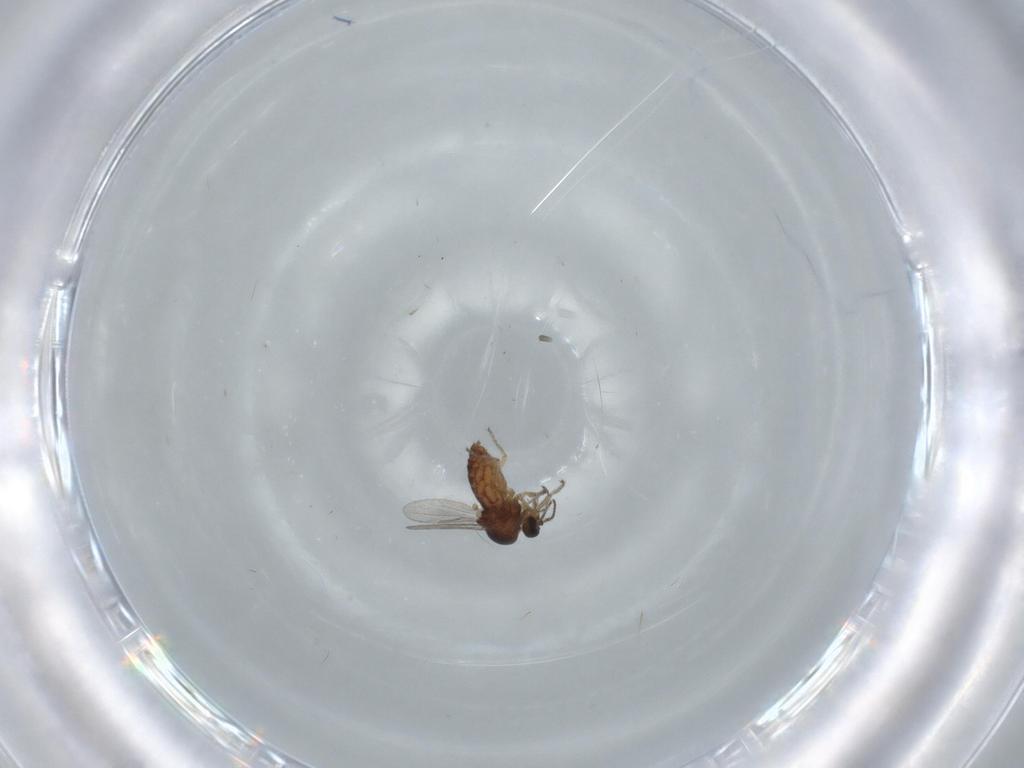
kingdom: Animalia
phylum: Arthropoda
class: Insecta
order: Diptera
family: Ceratopogonidae
